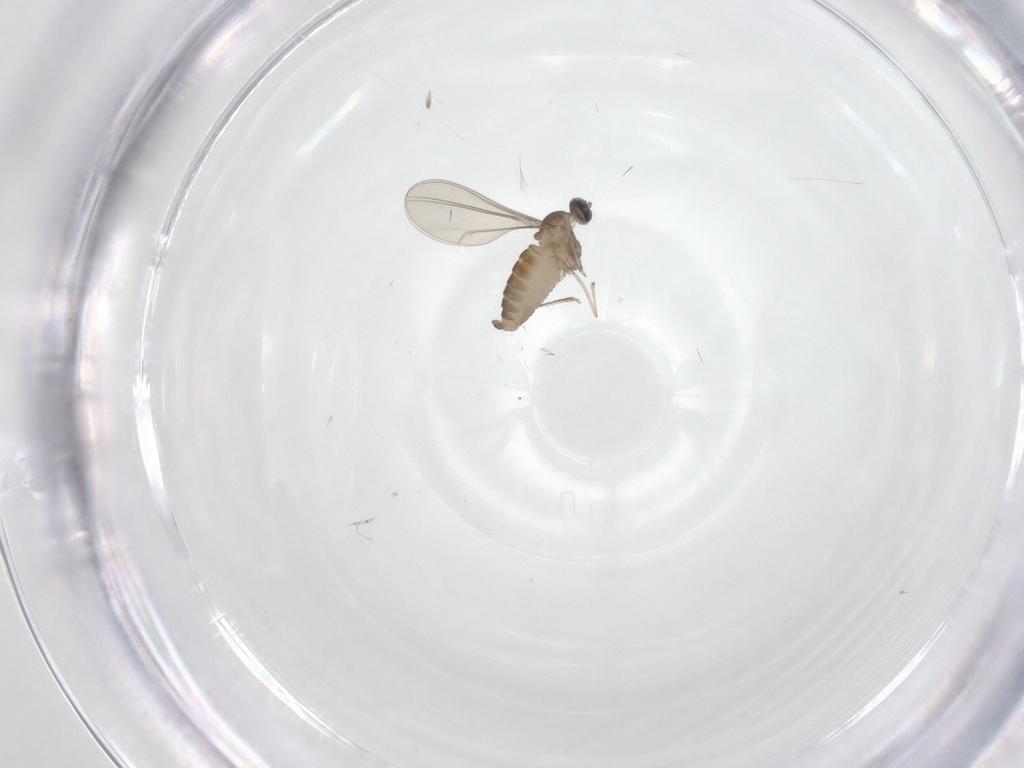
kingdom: Animalia
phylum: Arthropoda
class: Insecta
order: Diptera
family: Cecidomyiidae
